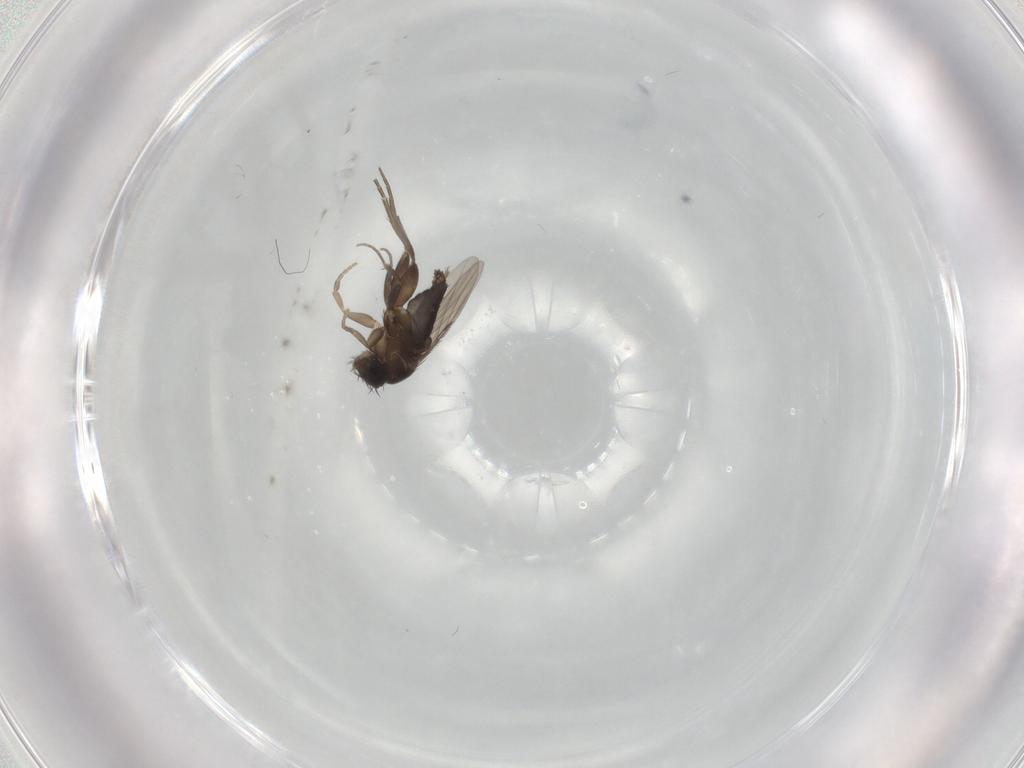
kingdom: Animalia
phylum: Arthropoda
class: Insecta
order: Diptera
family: Phoridae
